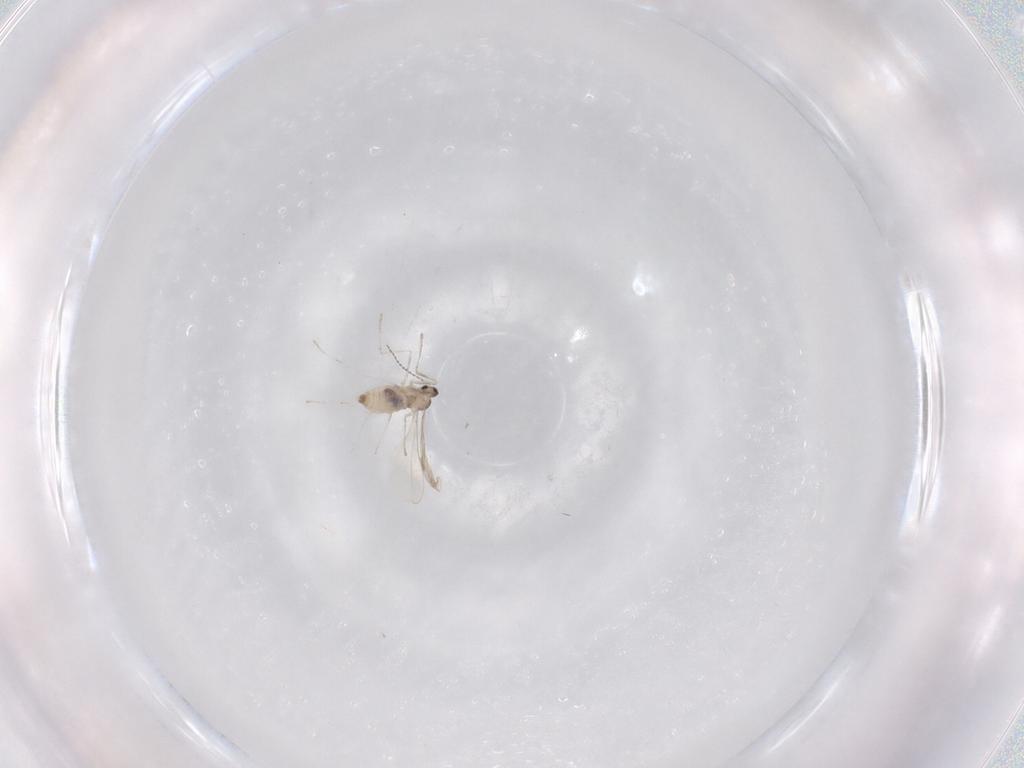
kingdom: Animalia
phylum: Arthropoda
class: Insecta
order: Diptera
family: Cecidomyiidae
